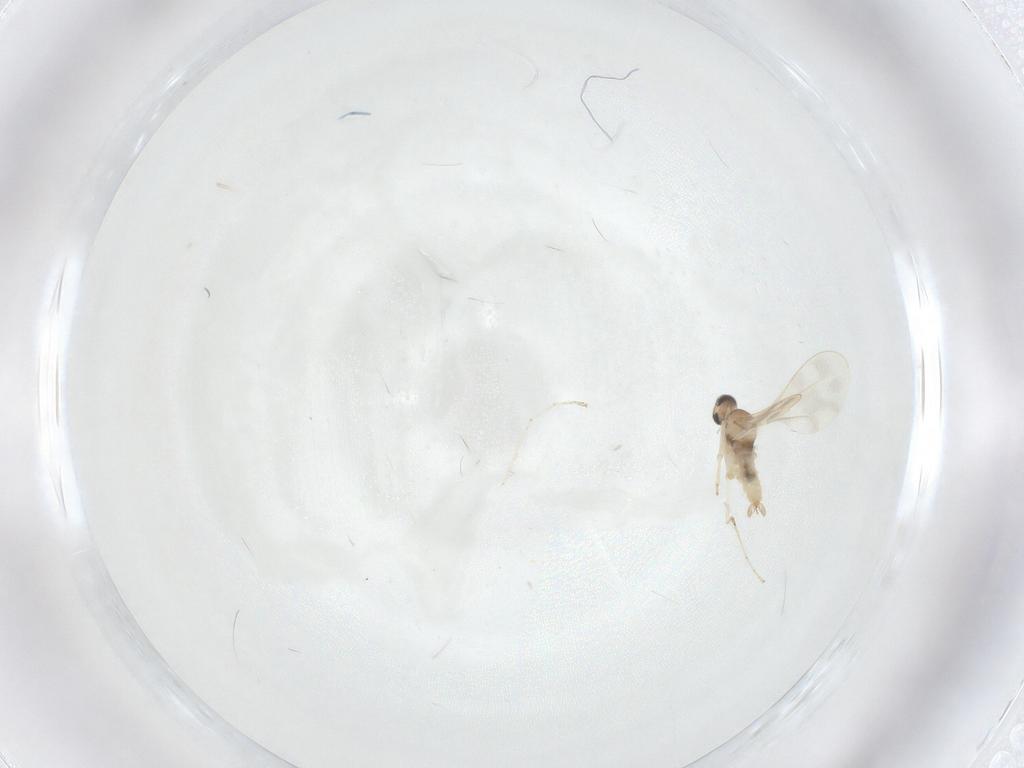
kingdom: Animalia
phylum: Arthropoda
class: Insecta
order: Diptera
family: Cecidomyiidae
